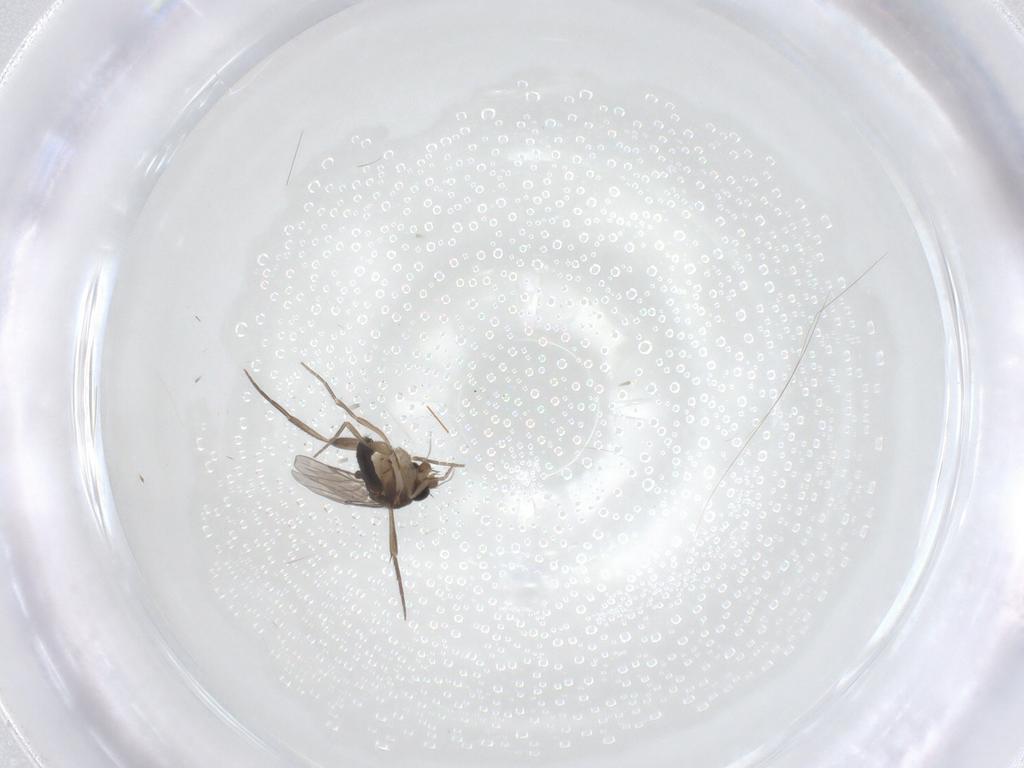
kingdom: Animalia
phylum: Arthropoda
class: Insecta
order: Diptera
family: Phoridae
